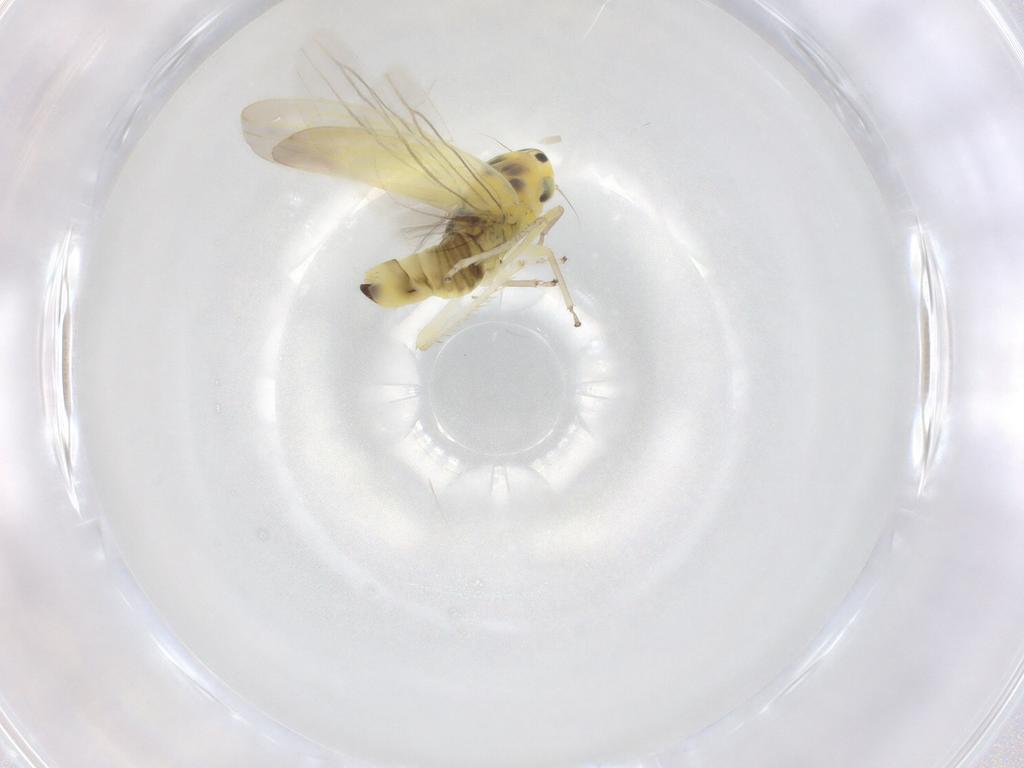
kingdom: Animalia
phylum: Arthropoda
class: Insecta
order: Hemiptera
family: Cicadellidae
